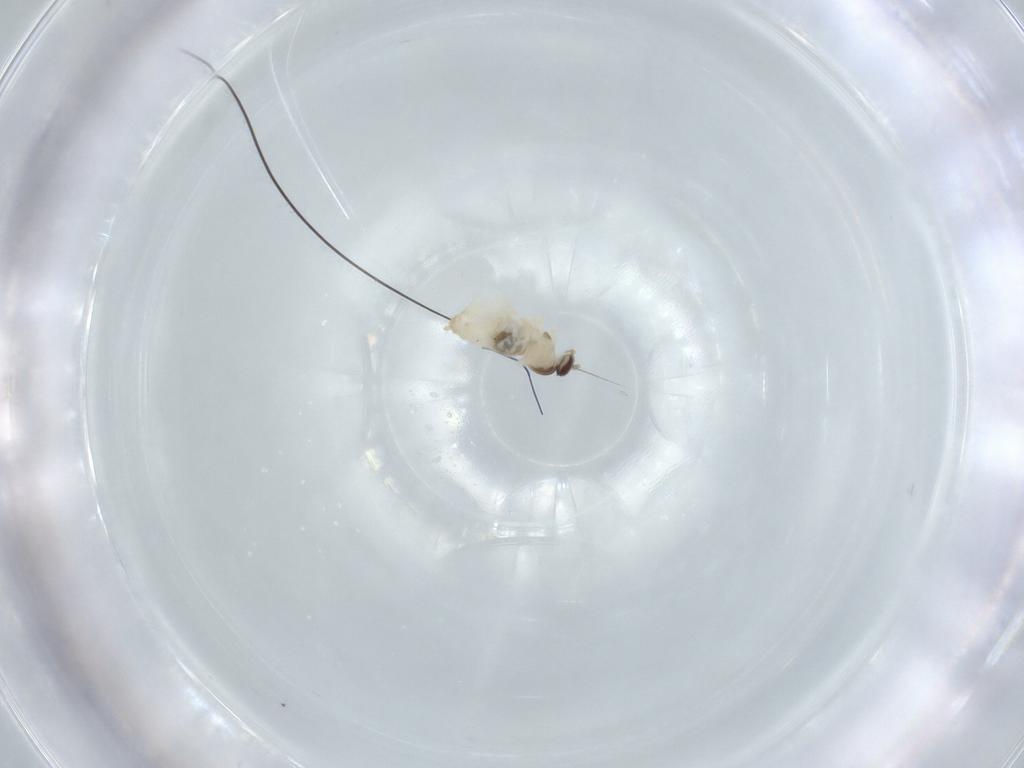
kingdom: Animalia
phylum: Arthropoda
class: Insecta
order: Diptera
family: Cecidomyiidae
